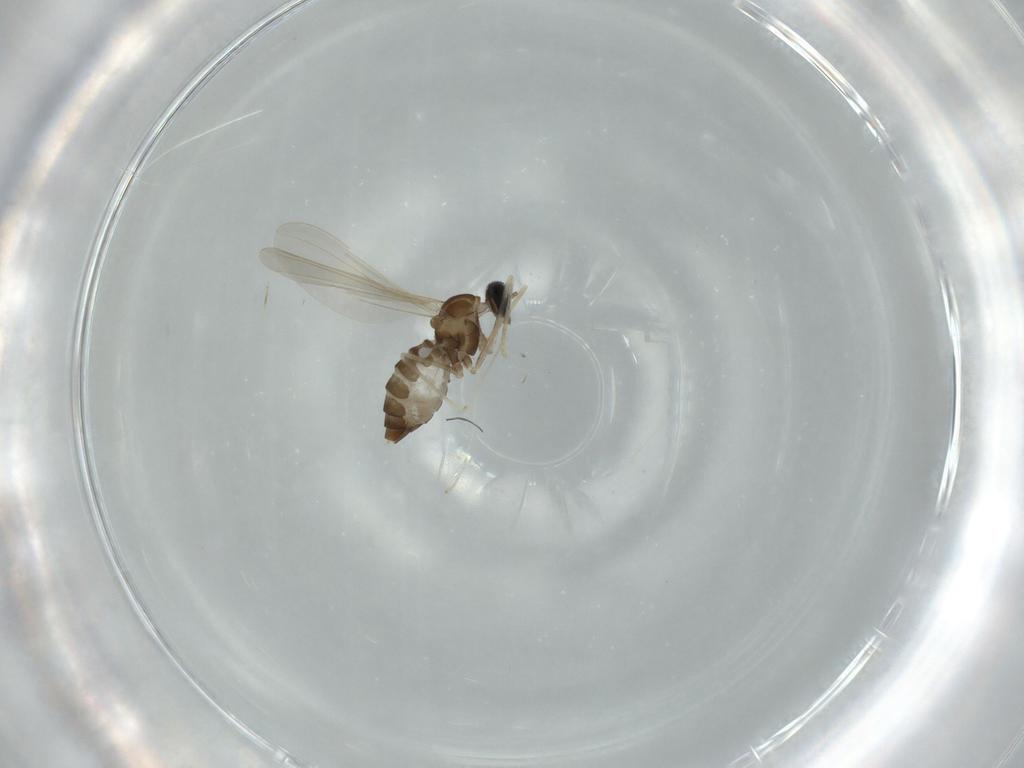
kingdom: Animalia
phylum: Arthropoda
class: Insecta
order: Diptera
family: Cecidomyiidae
